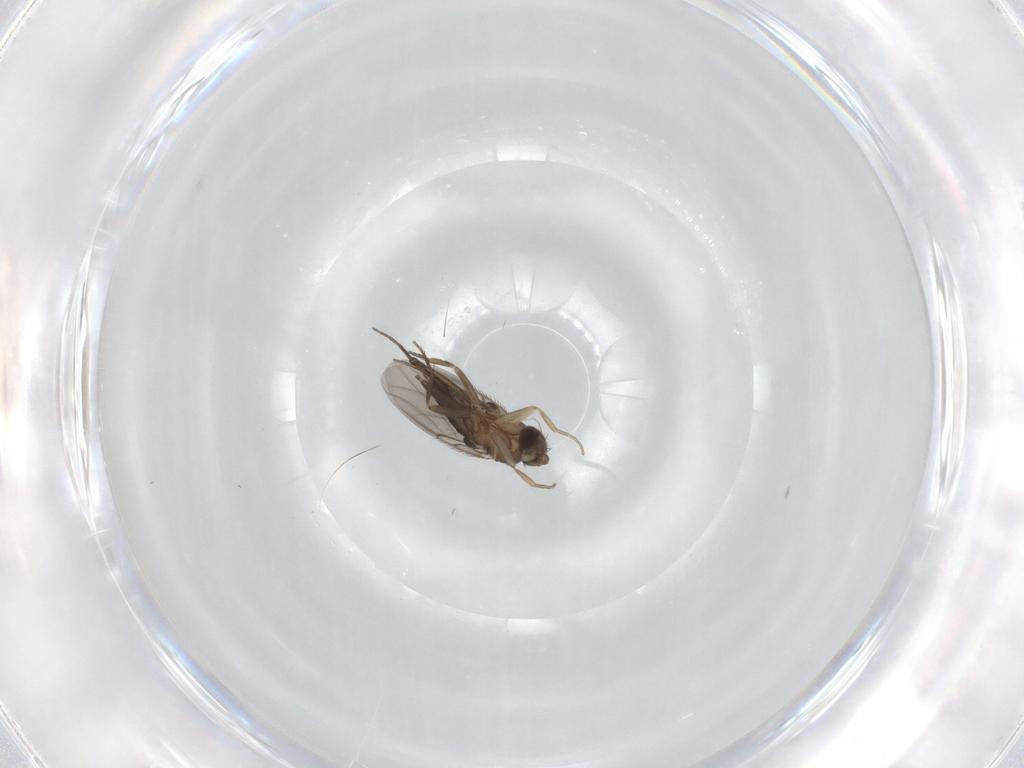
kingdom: Animalia
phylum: Arthropoda
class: Insecta
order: Diptera
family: Phoridae
